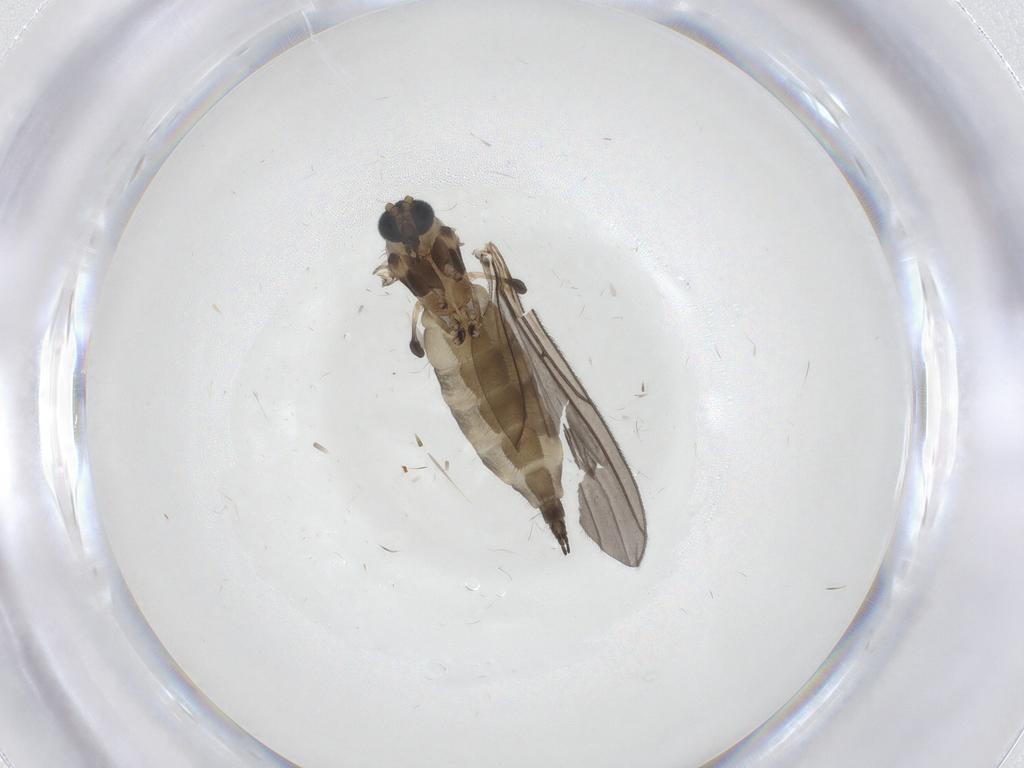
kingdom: Animalia
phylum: Arthropoda
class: Insecta
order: Diptera
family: Sciaridae
